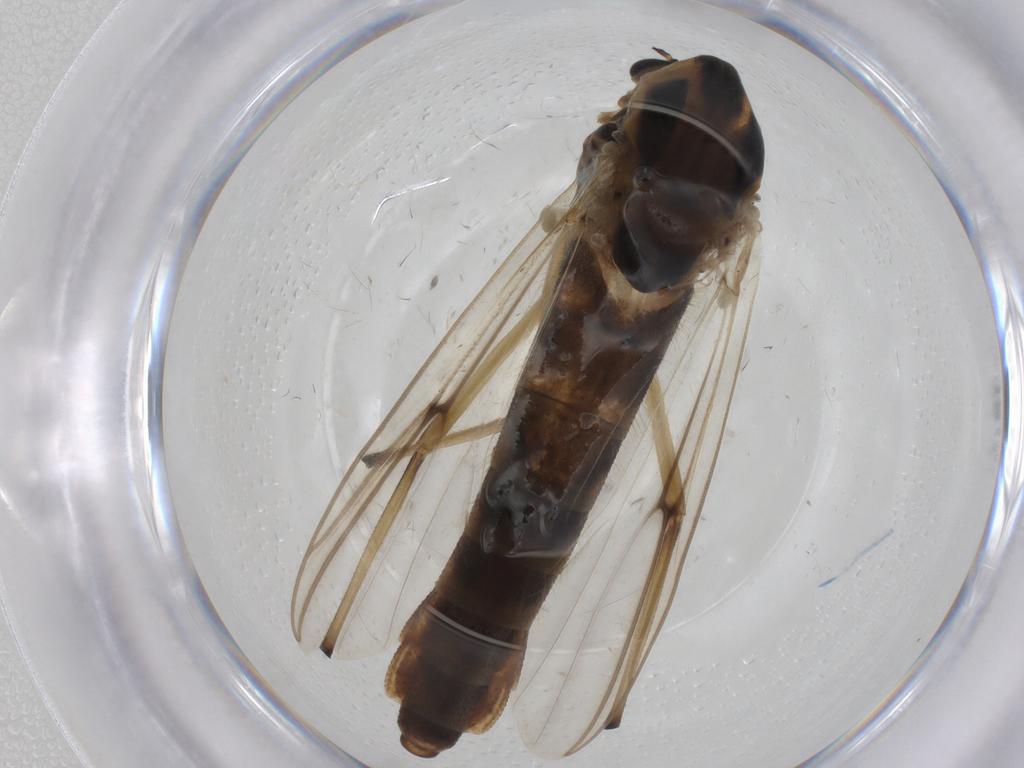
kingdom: Animalia
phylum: Arthropoda
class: Insecta
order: Diptera
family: Chironomidae
